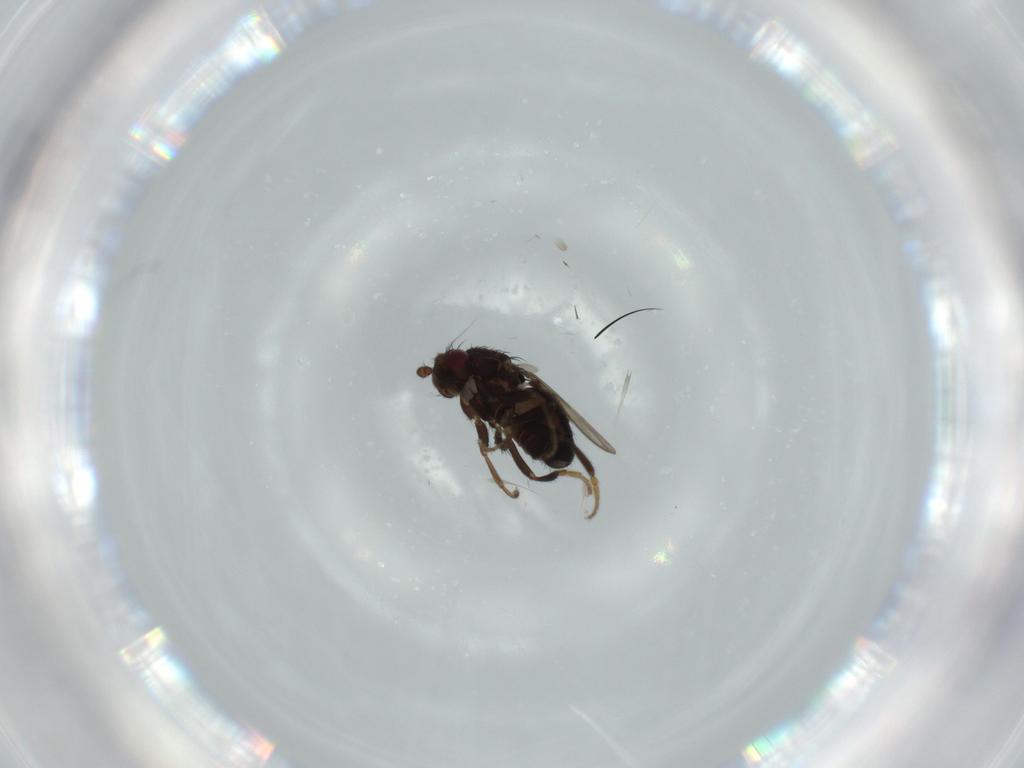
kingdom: Animalia
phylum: Arthropoda
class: Insecta
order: Diptera
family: Sphaeroceridae
